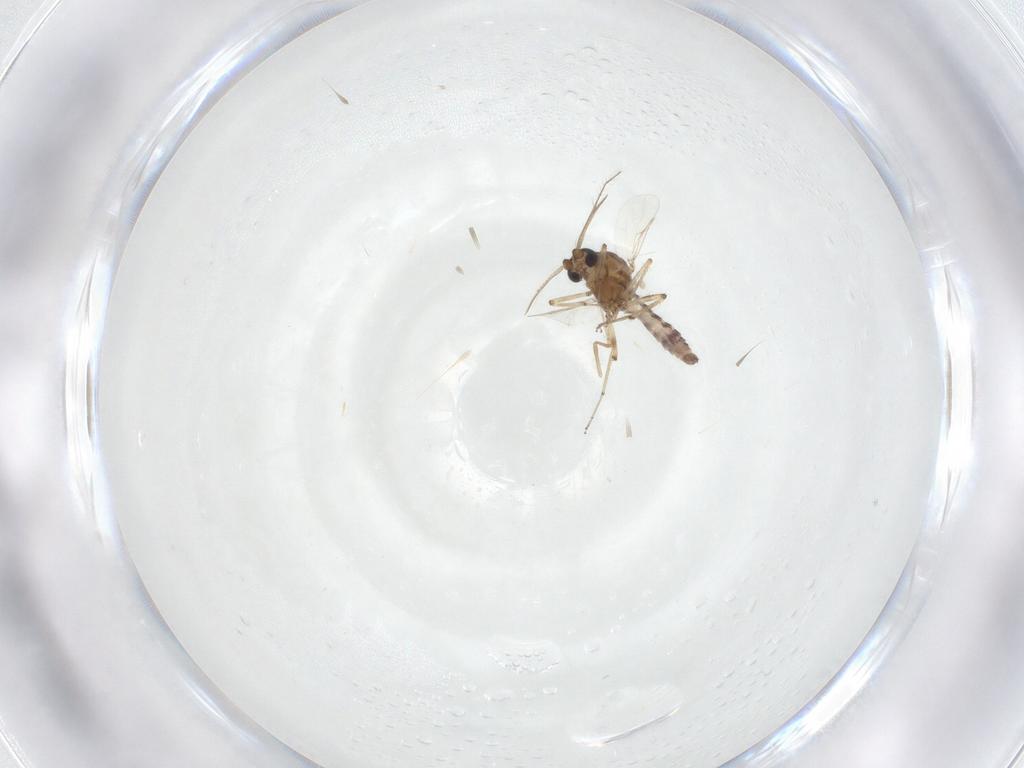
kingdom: Animalia
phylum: Arthropoda
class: Insecta
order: Diptera
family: Ceratopogonidae
